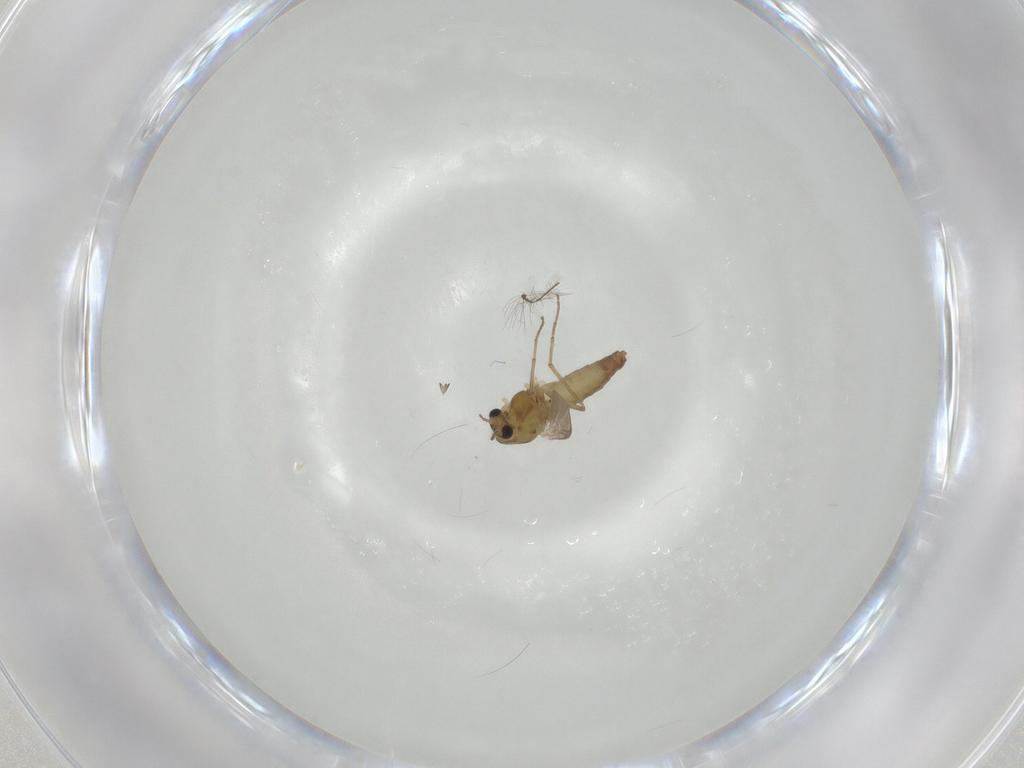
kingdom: Animalia
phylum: Arthropoda
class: Insecta
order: Diptera
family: Chironomidae
